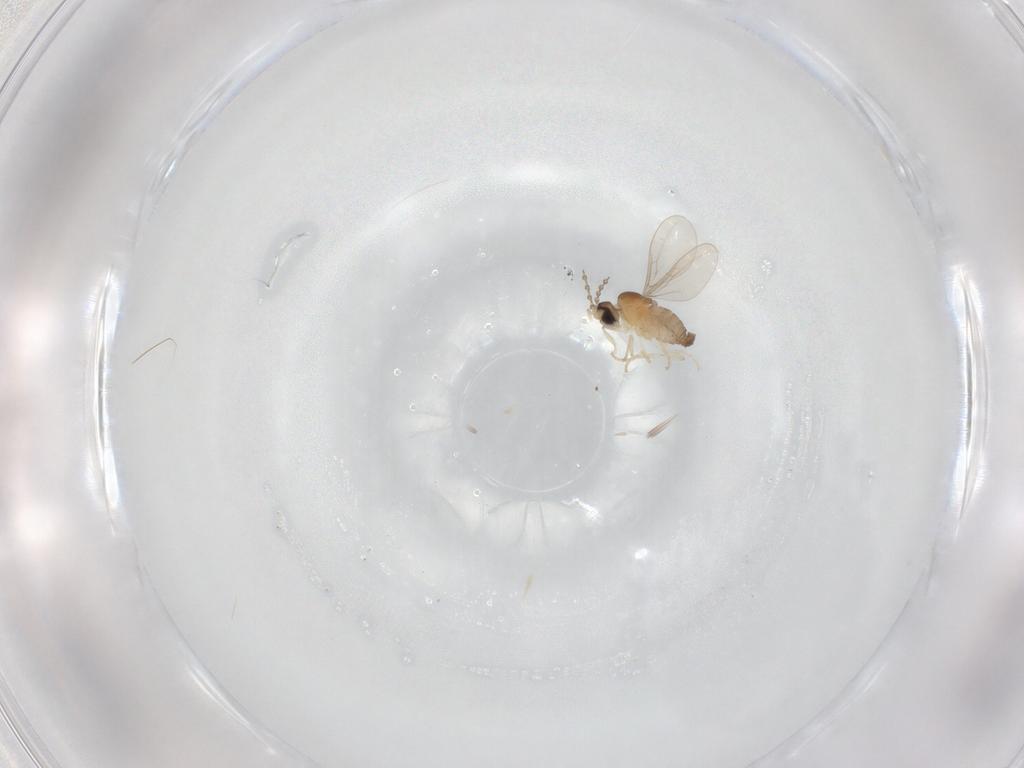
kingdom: Animalia
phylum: Arthropoda
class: Insecta
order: Diptera
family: Cecidomyiidae
